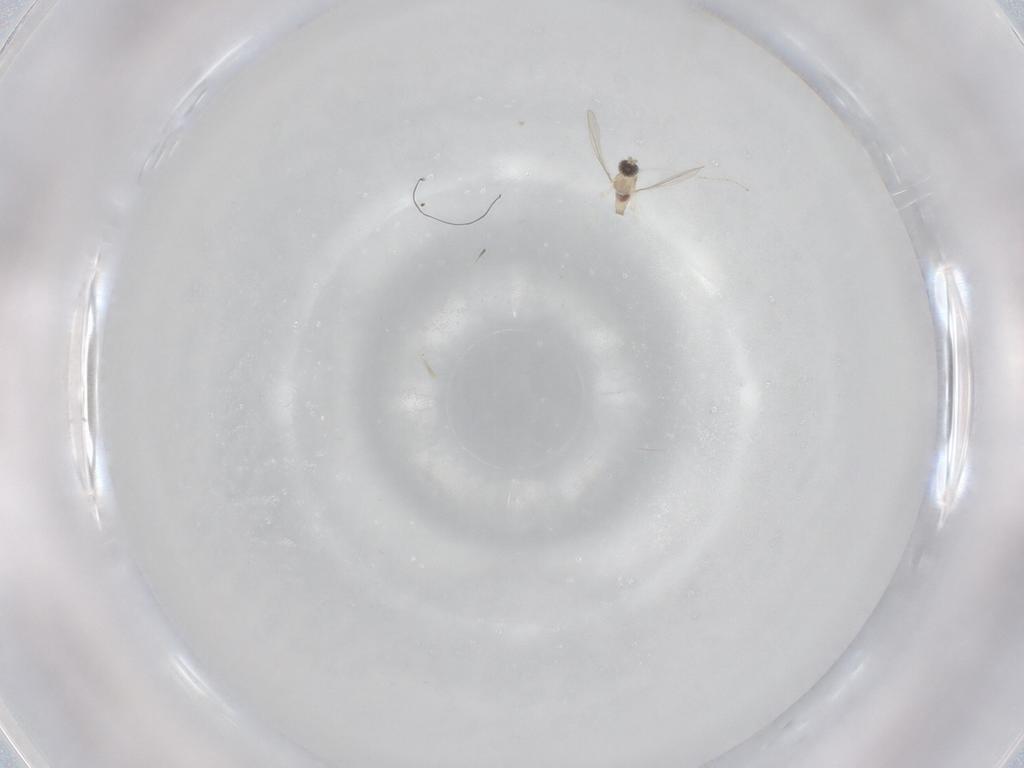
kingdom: Animalia
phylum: Arthropoda
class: Insecta
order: Diptera
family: Cecidomyiidae
